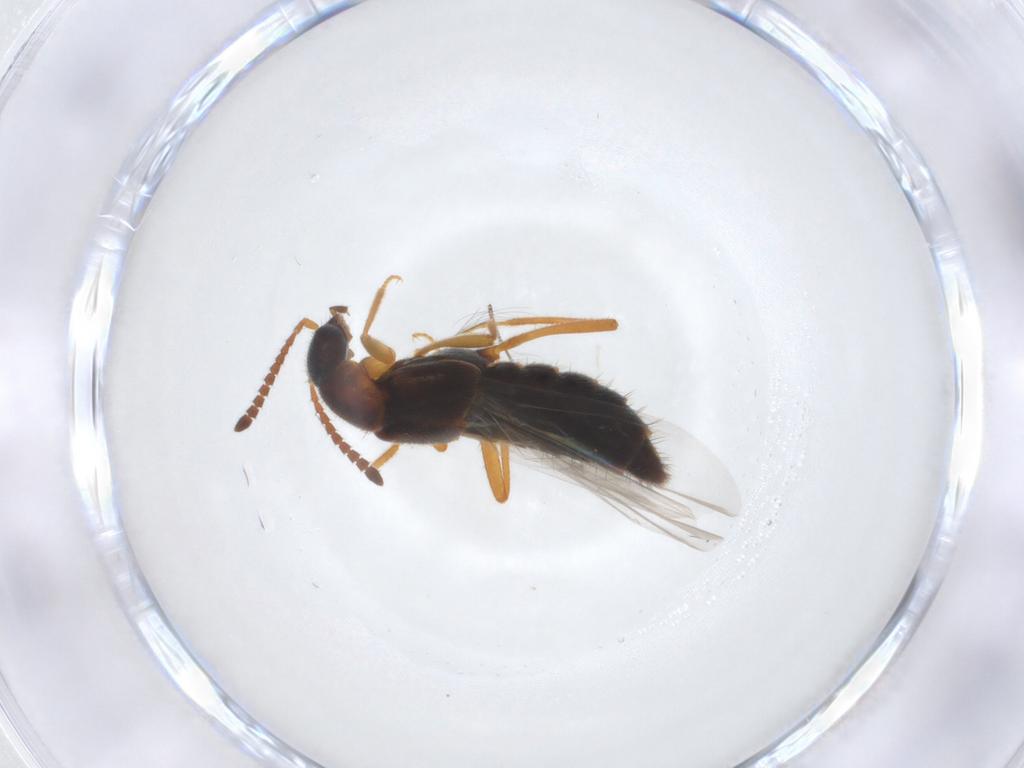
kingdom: Animalia
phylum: Arthropoda
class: Insecta
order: Coleoptera
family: Cantharidae
